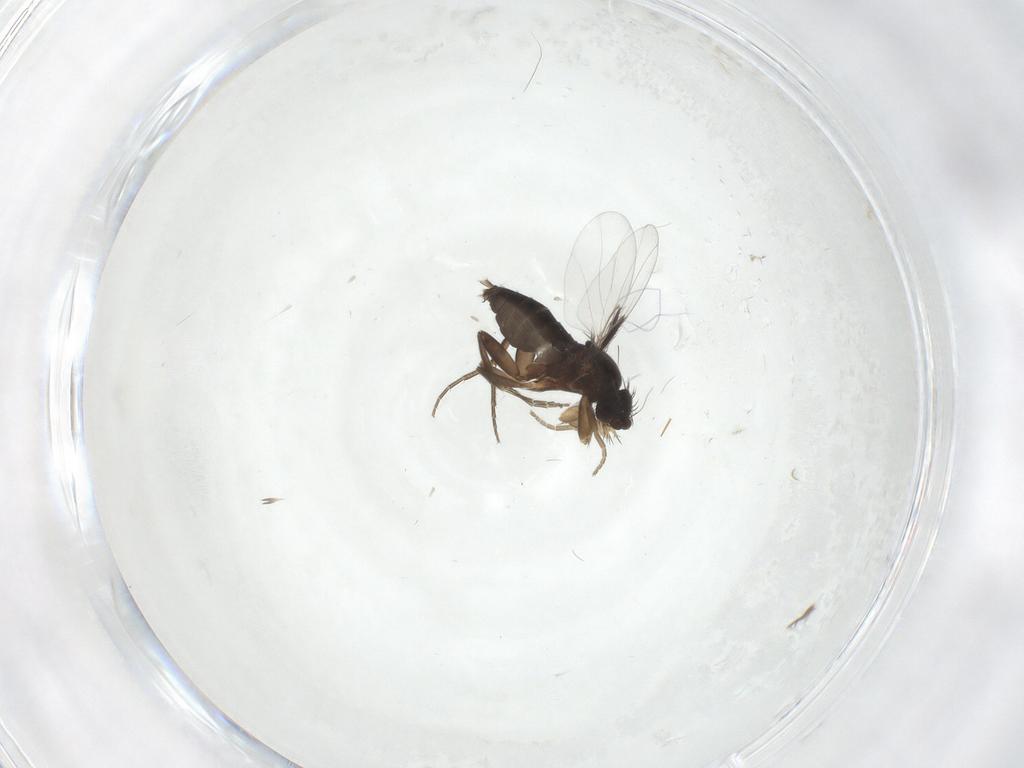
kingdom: Animalia
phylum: Arthropoda
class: Insecta
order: Diptera
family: Phoridae
